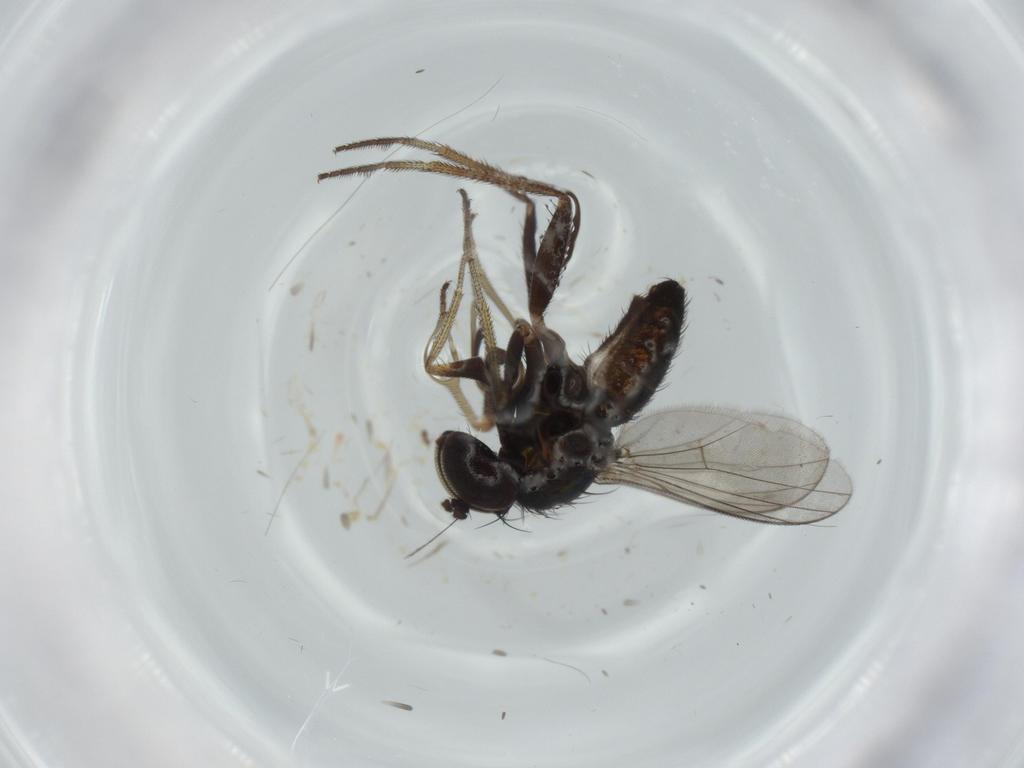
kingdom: Animalia
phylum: Arthropoda
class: Insecta
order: Diptera
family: Dolichopodidae
